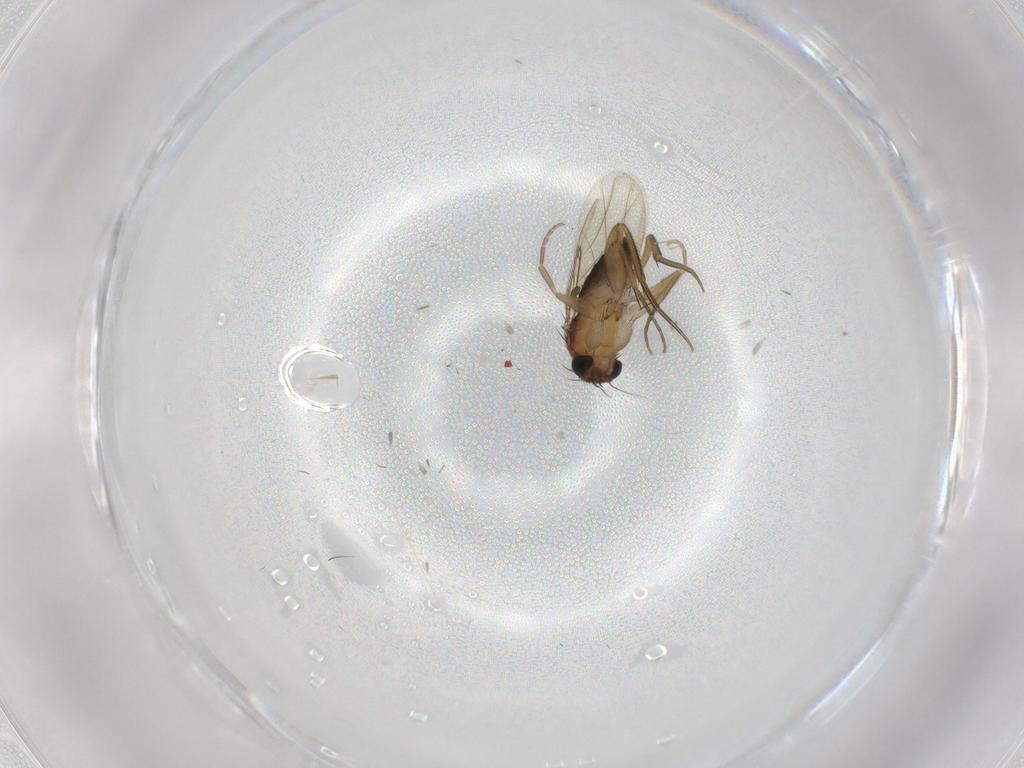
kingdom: Animalia
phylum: Arthropoda
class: Insecta
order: Diptera
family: Phoridae
